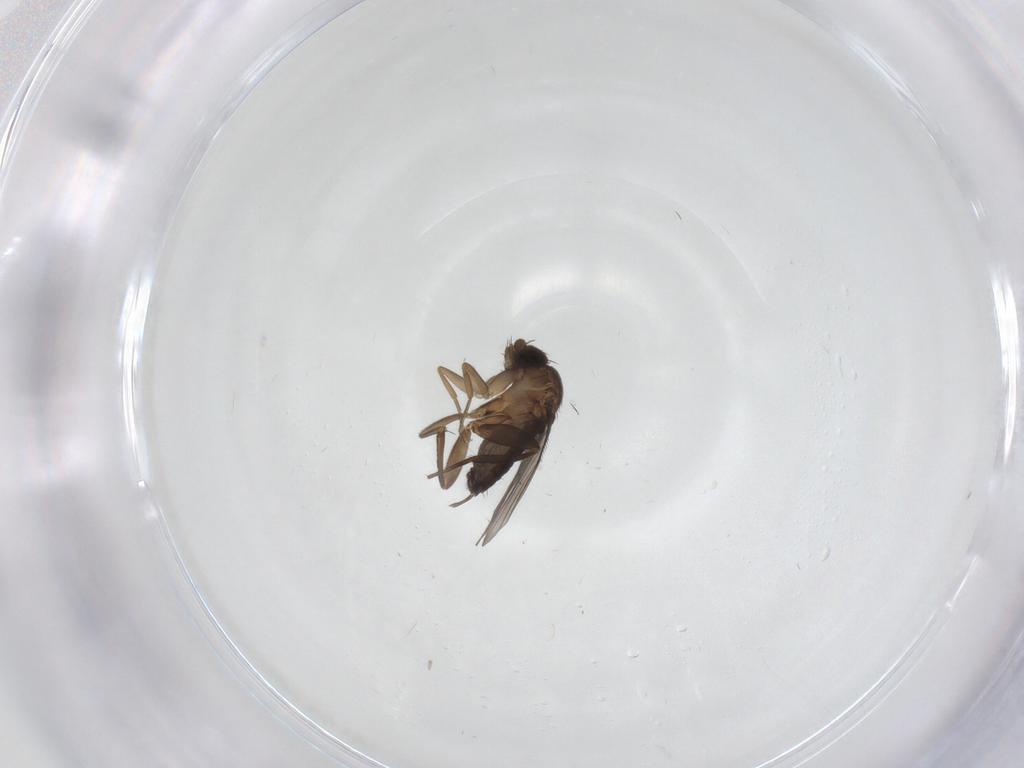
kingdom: Animalia
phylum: Arthropoda
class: Insecta
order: Diptera
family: Phoridae
